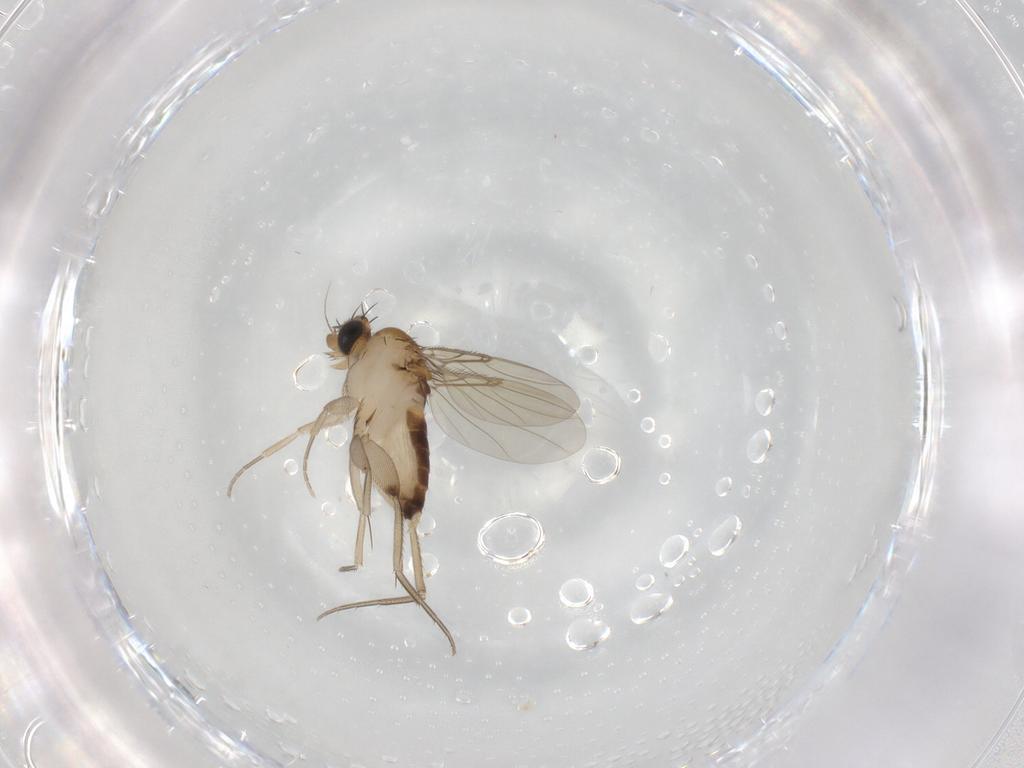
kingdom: Animalia
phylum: Arthropoda
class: Insecta
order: Diptera
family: Phoridae
